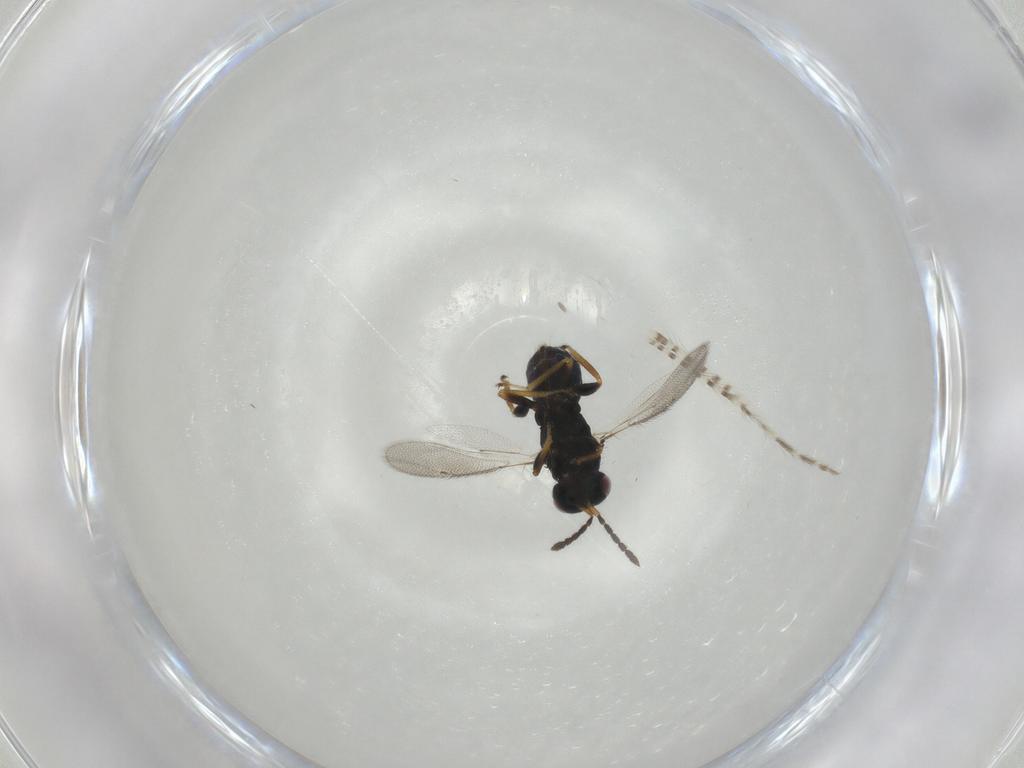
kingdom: Animalia
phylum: Arthropoda
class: Insecta
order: Hymenoptera
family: Eulophidae
